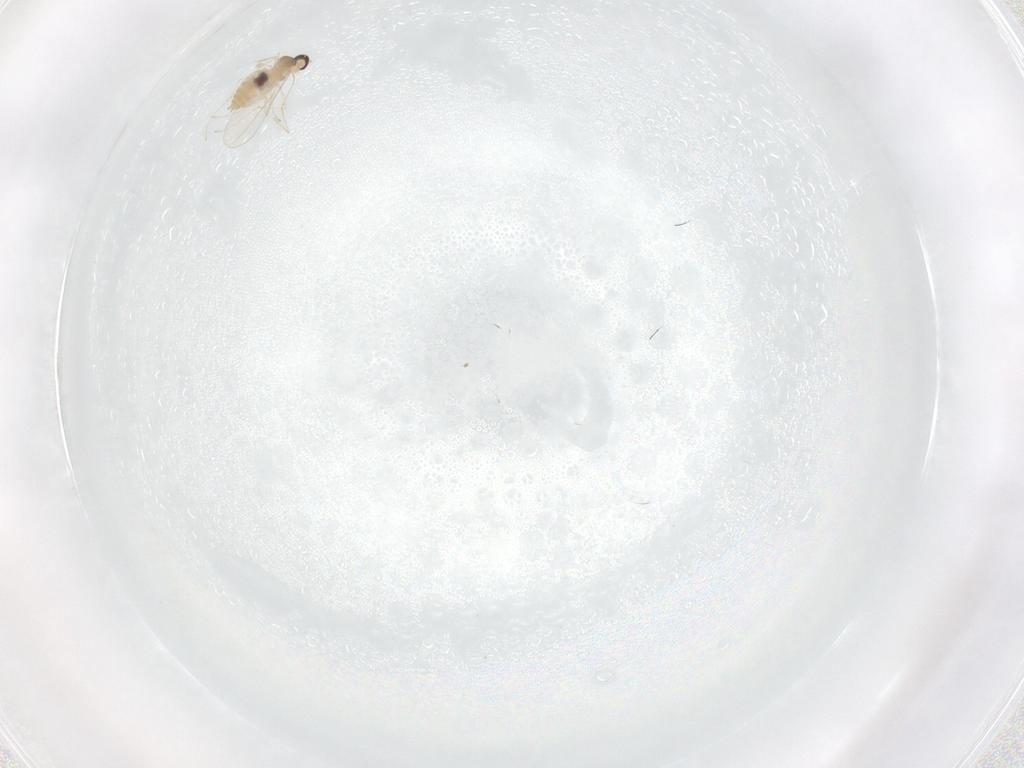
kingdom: Animalia
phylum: Arthropoda
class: Insecta
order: Diptera
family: Cecidomyiidae
